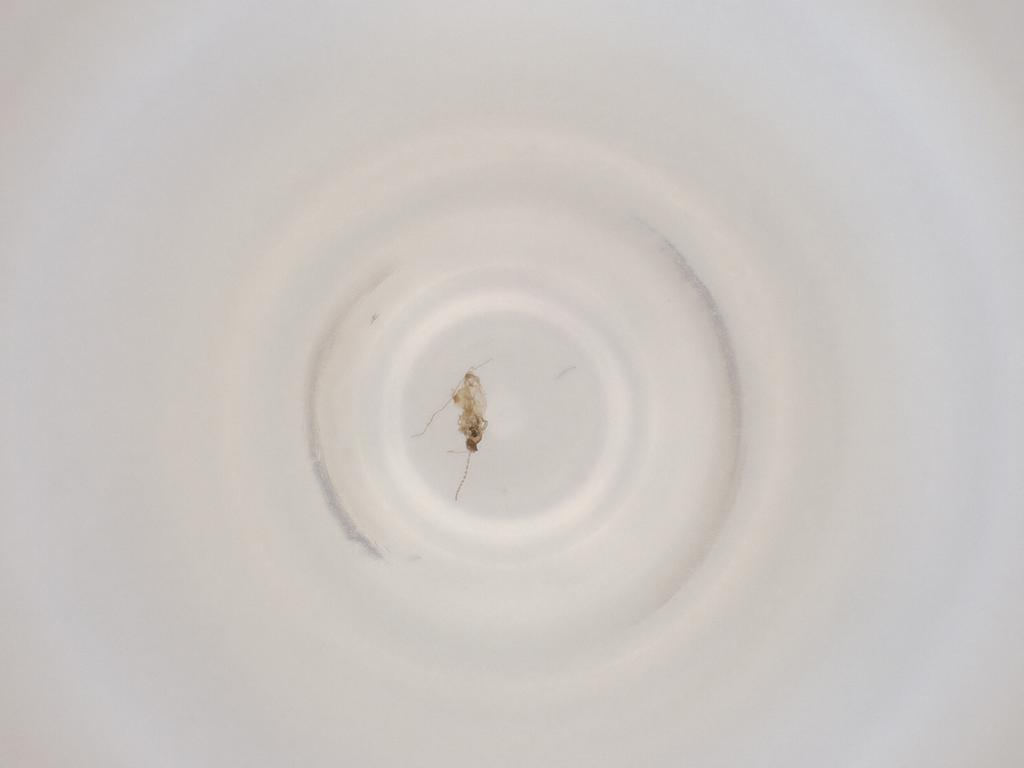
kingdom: Animalia
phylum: Arthropoda
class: Insecta
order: Diptera
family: Cecidomyiidae
